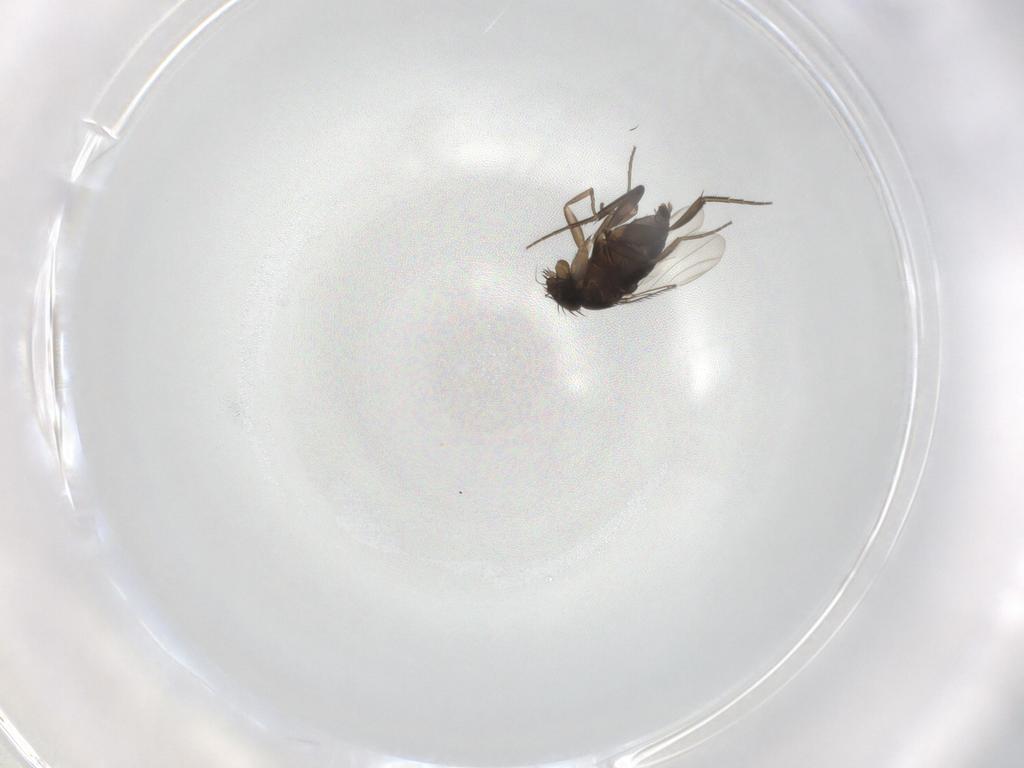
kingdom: Animalia
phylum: Arthropoda
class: Insecta
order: Diptera
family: Phoridae
